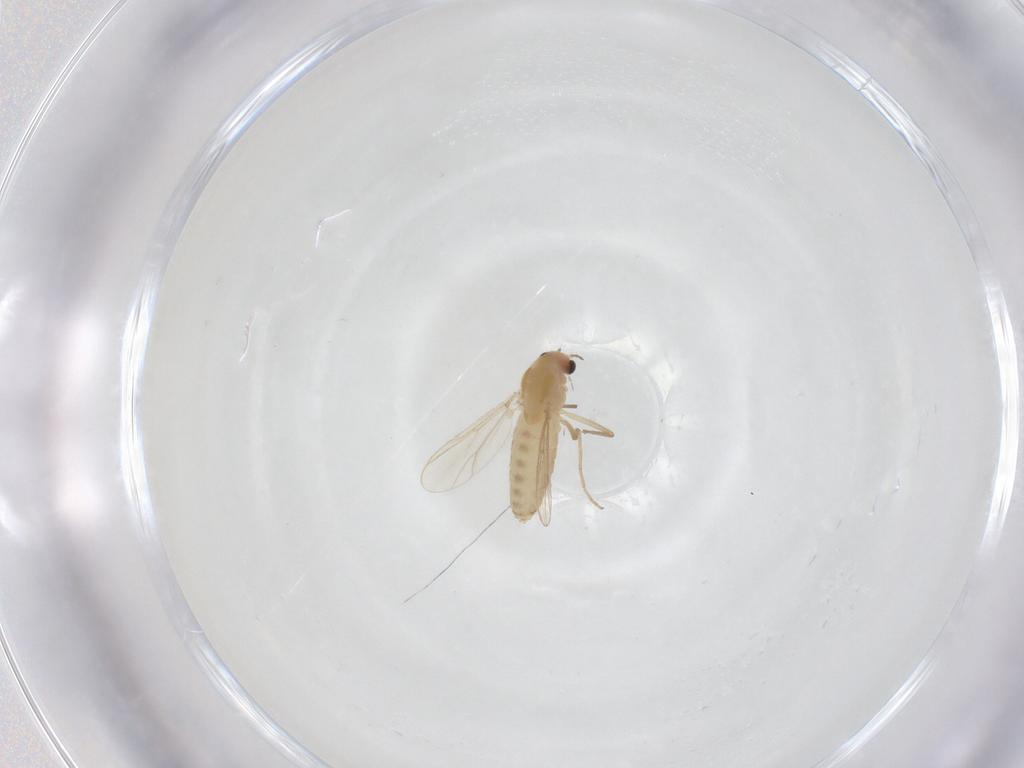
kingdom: Animalia
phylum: Arthropoda
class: Insecta
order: Diptera
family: Chironomidae
